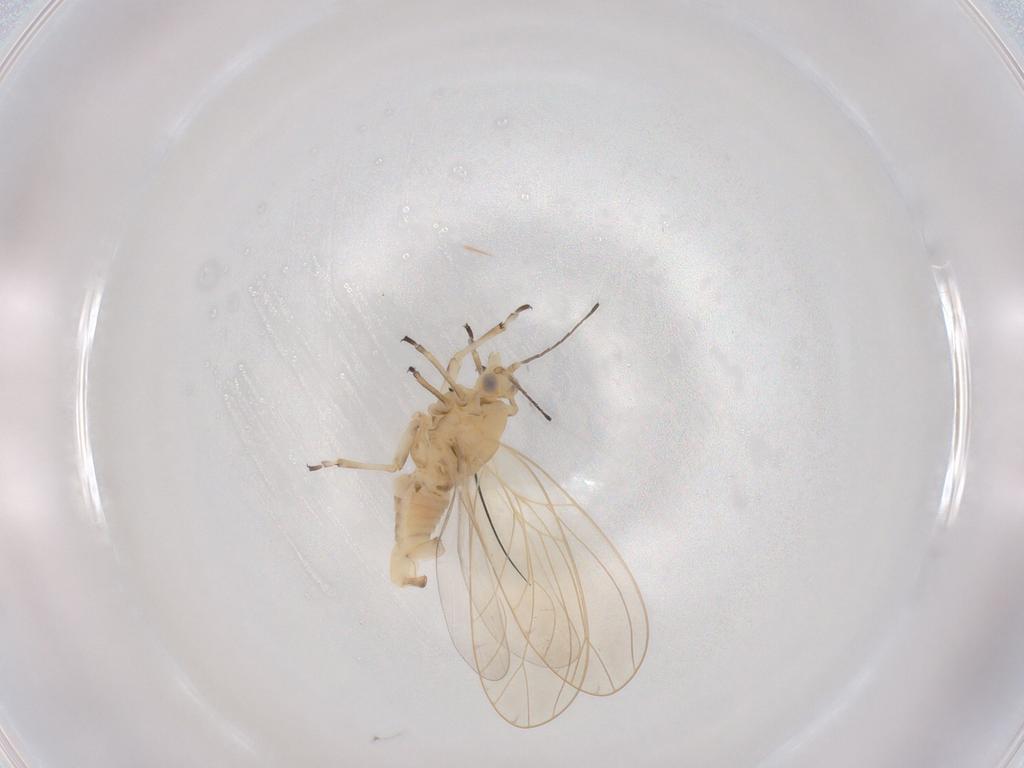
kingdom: Animalia
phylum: Arthropoda
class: Insecta
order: Hemiptera
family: Triozidae
